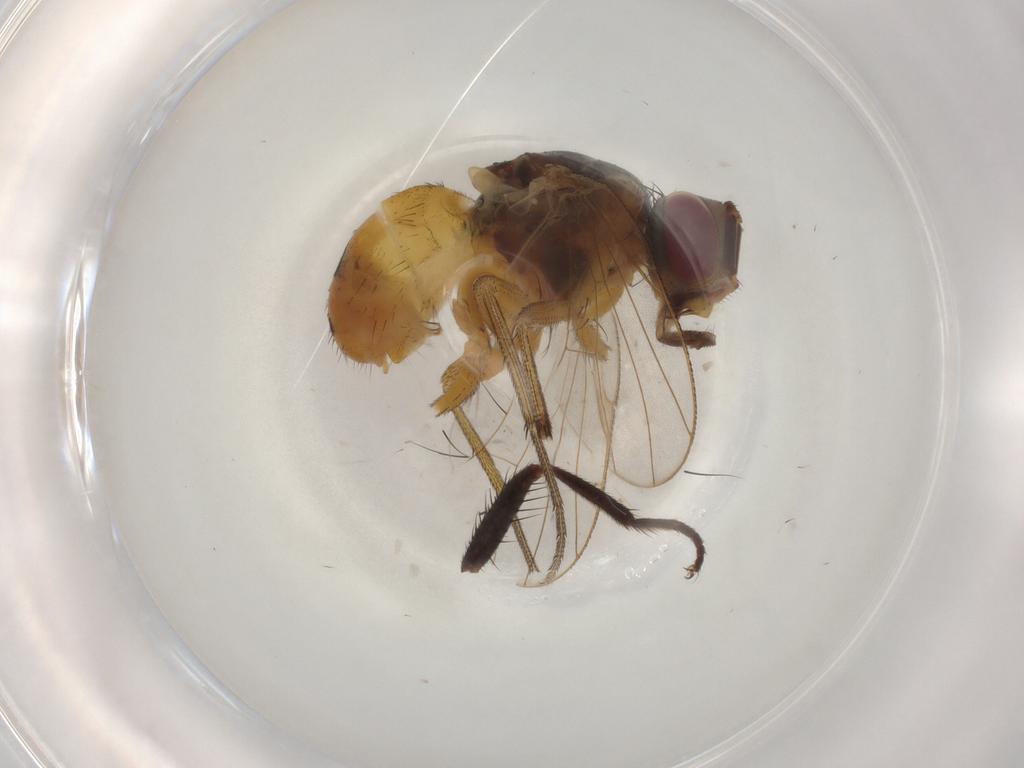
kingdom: Animalia
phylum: Arthropoda
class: Insecta
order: Diptera
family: Muscidae
